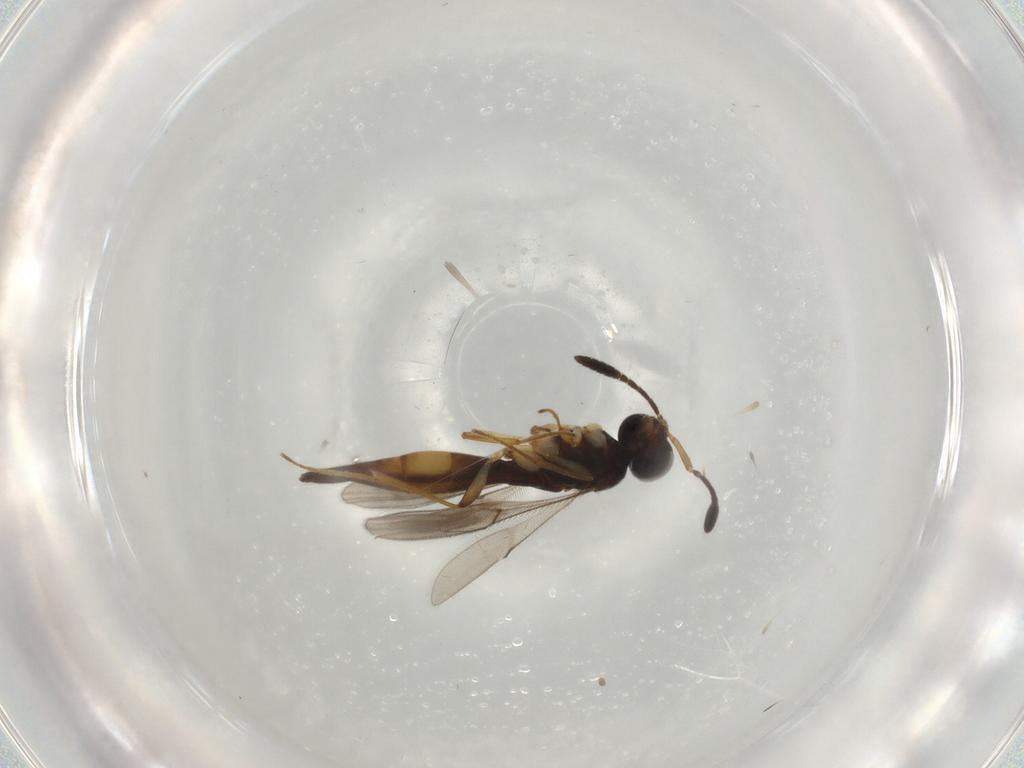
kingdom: Animalia
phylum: Arthropoda
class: Insecta
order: Hymenoptera
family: Scelionidae
